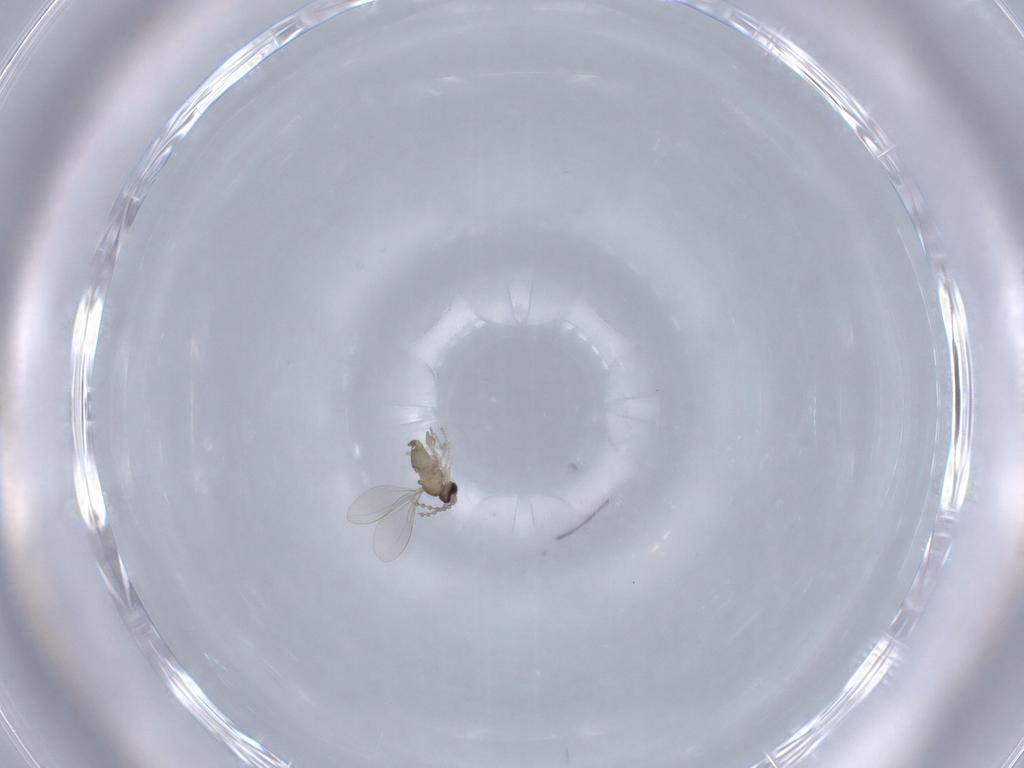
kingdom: Animalia
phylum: Arthropoda
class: Insecta
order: Diptera
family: Cecidomyiidae
